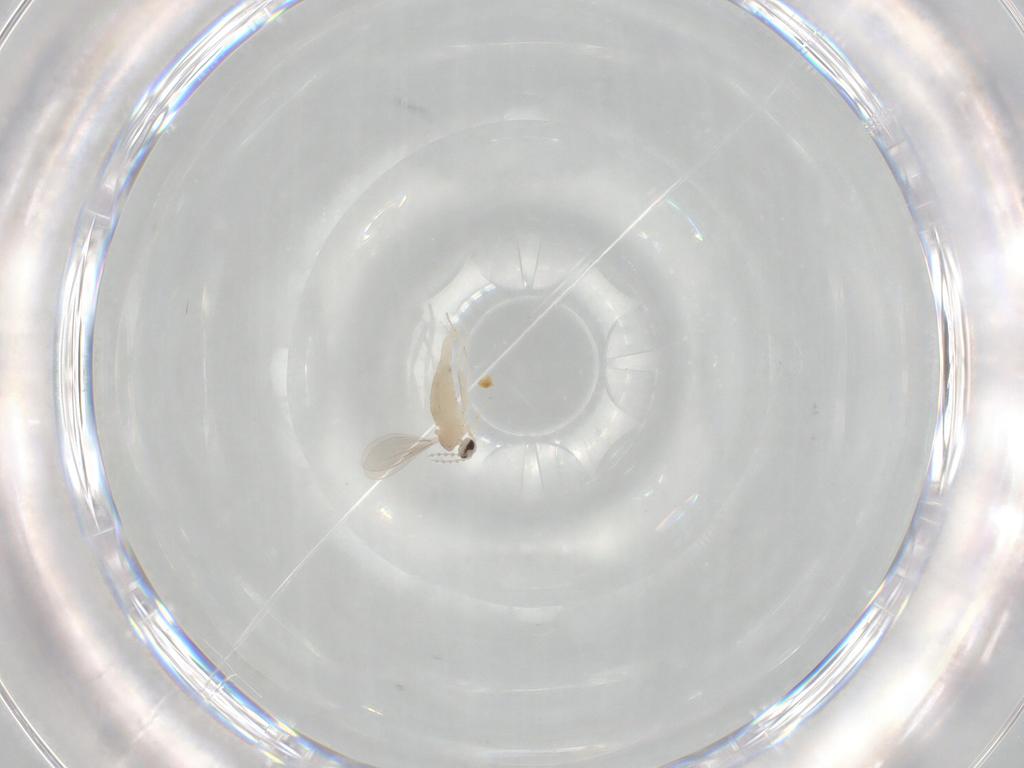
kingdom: Animalia
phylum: Arthropoda
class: Insecta
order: Diptera
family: Cecidomyiidae
